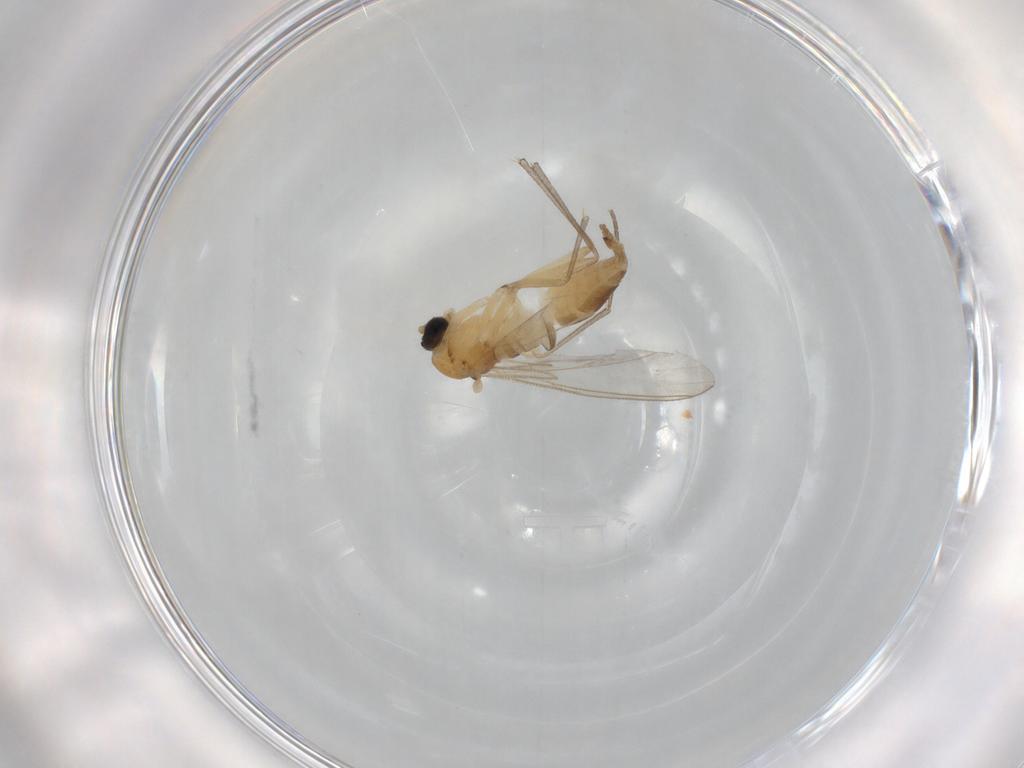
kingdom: Animalia
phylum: Arthropoda
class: Insecta
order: Diptera
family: Sciaridae
